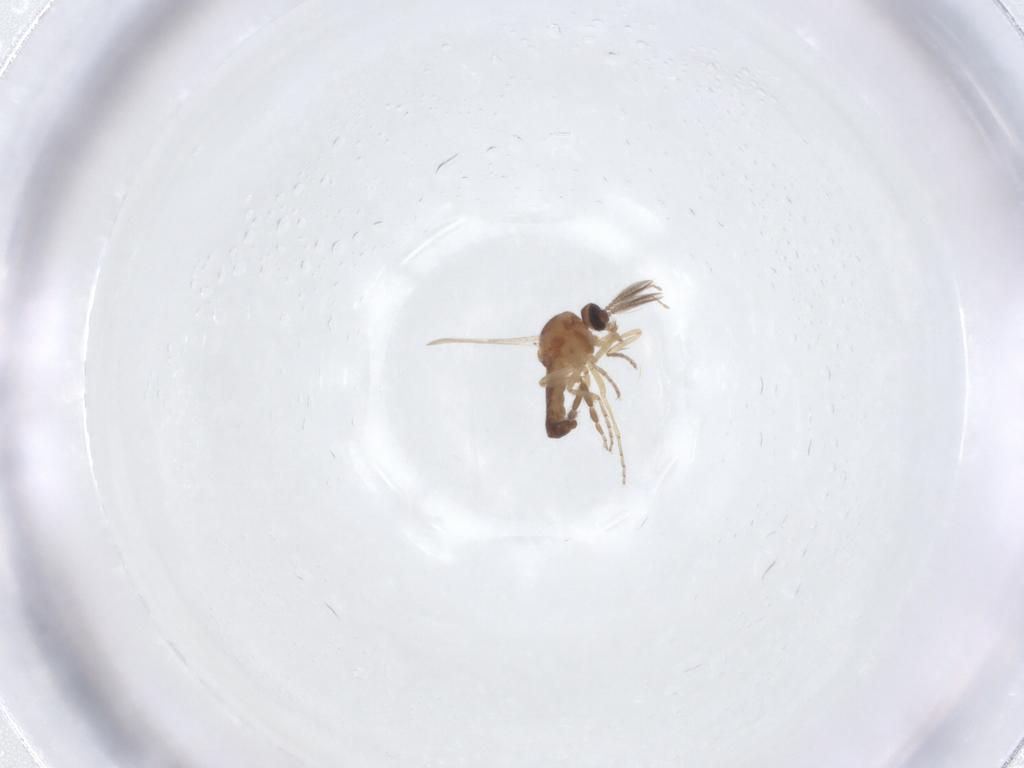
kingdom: Animalia
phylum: Arthropoda
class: Insecta
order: Diptera
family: Ceratopogonidae
